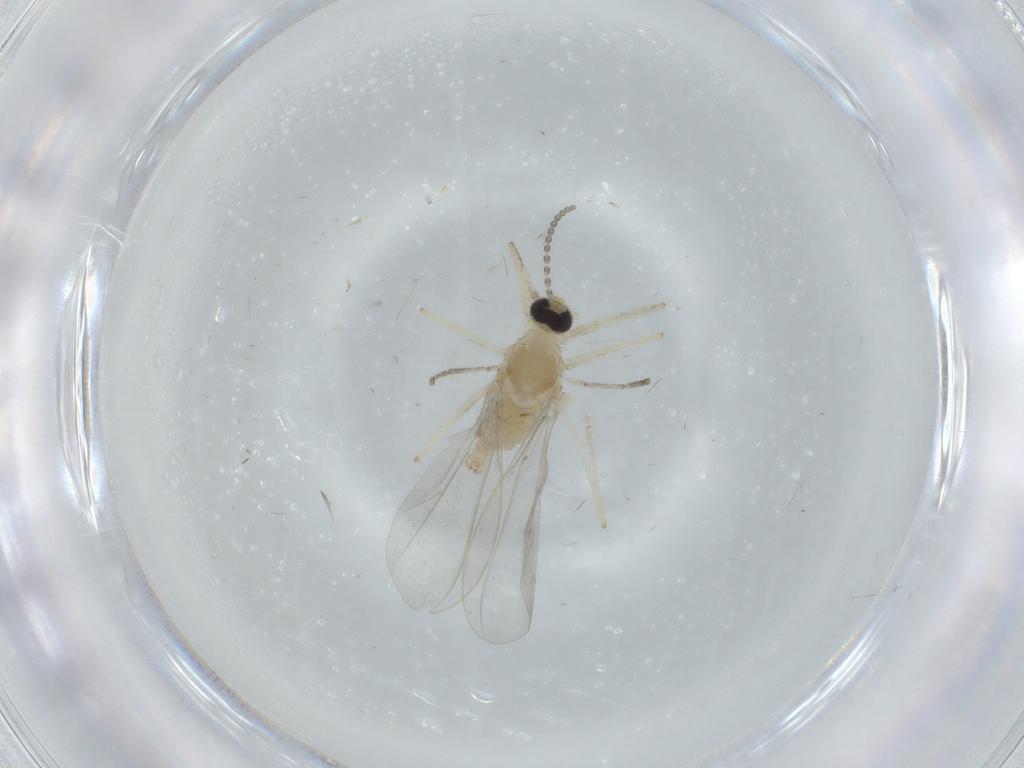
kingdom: Animalia
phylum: Arthropoda
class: Insecta
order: Diptera
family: Cecidomyiidae
